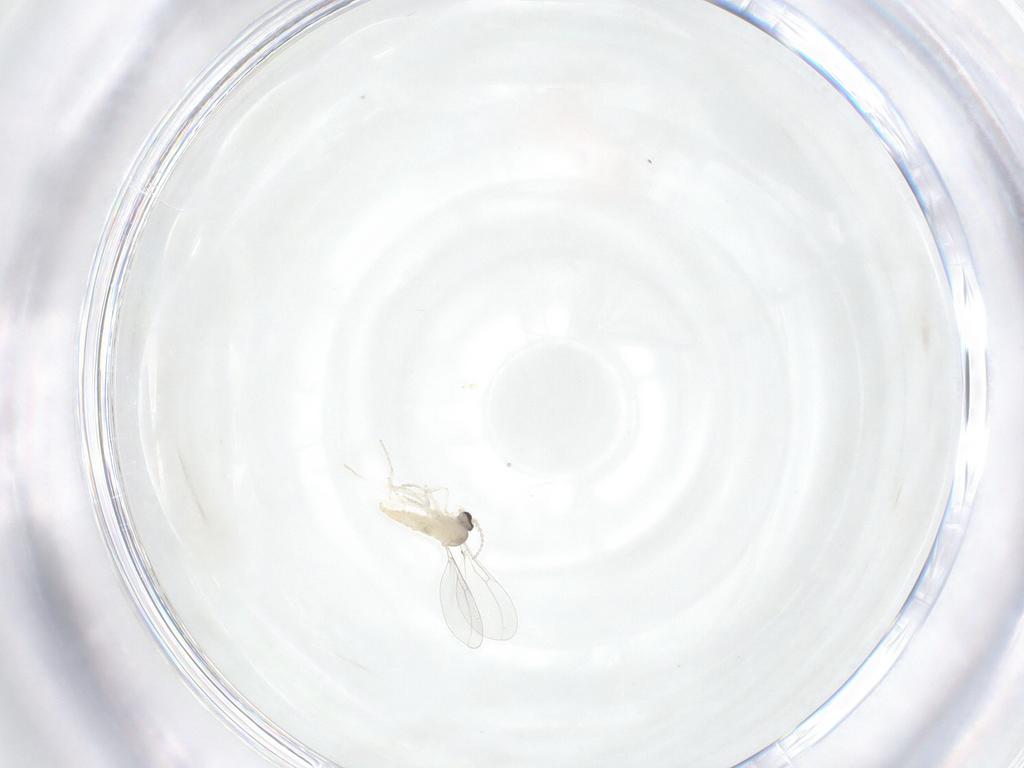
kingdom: Animalia
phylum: Arthropoda
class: Insecta
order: Diptera
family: Cecidomyiidae
